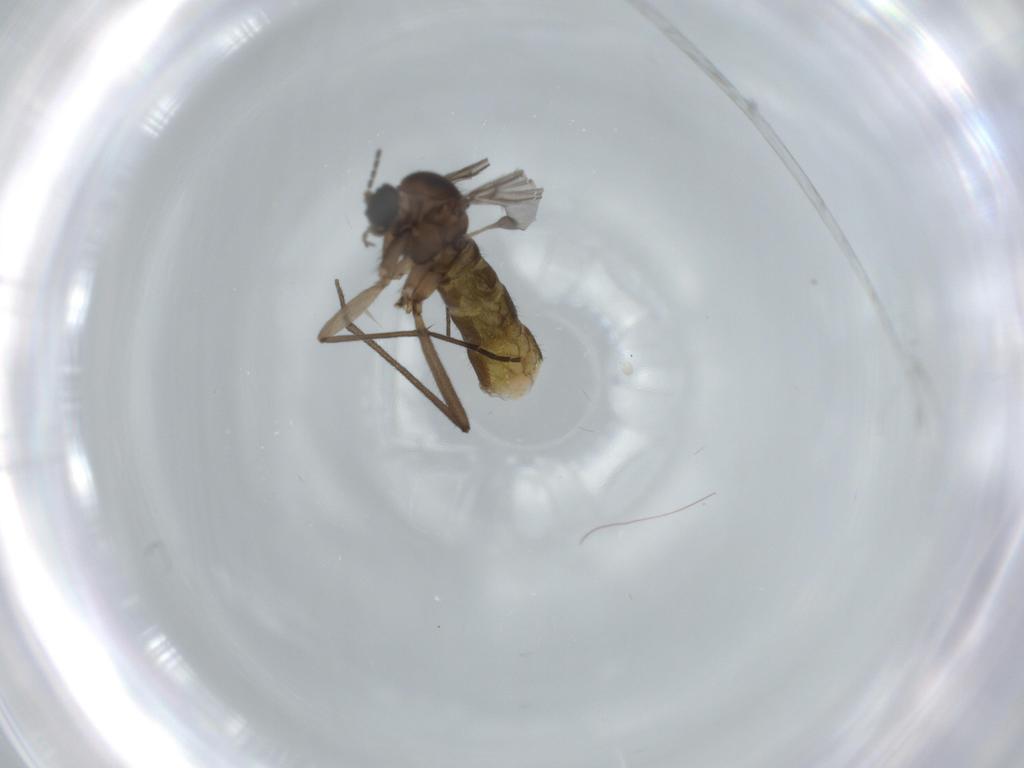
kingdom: Animalia
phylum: Arthropoda
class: Insecta
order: Diptera
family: Sciaridae
